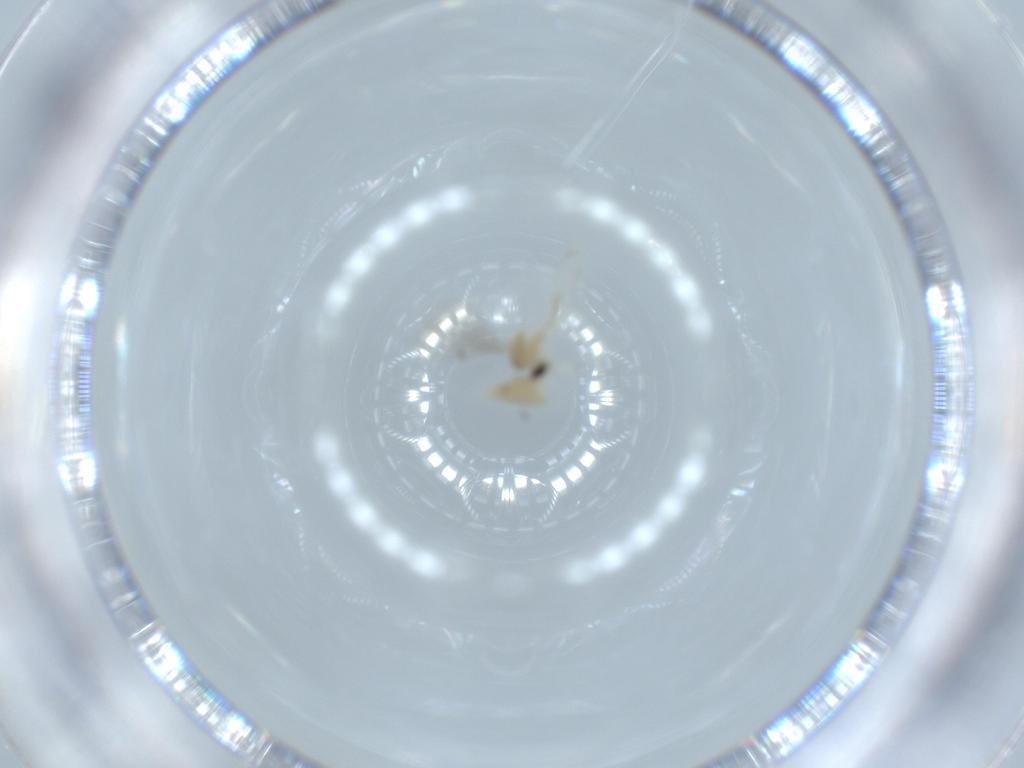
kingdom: Animalia
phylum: Arthropoda
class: Insecta
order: Diptera
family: Cecidomyiidae
